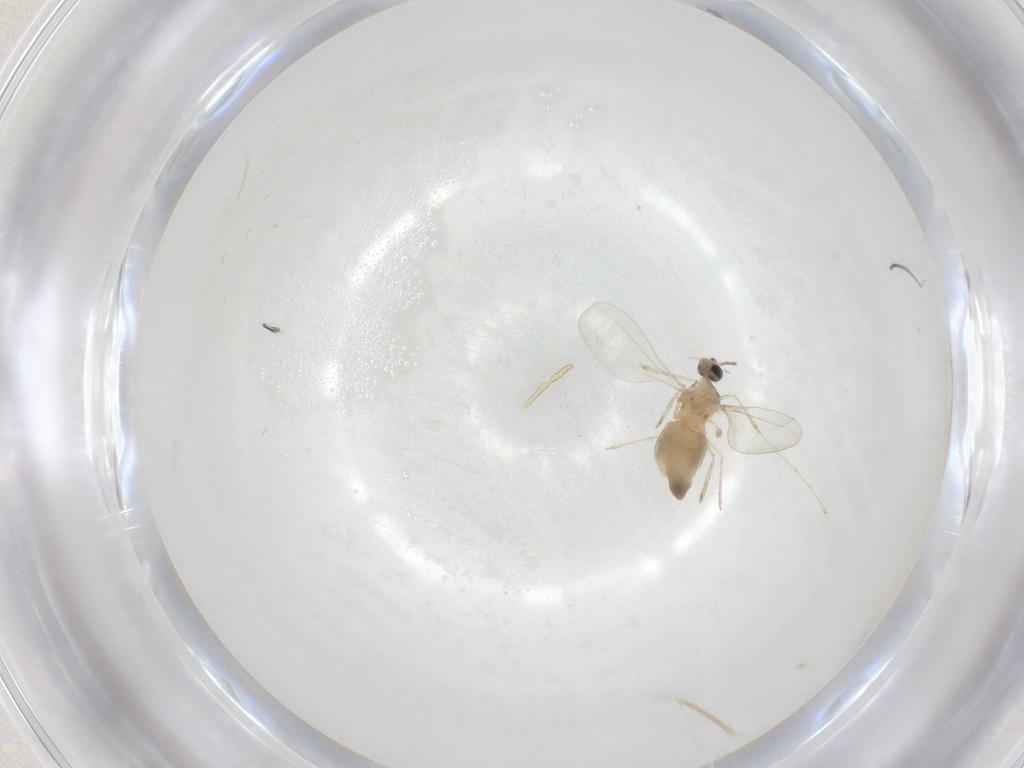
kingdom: Animalia
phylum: Arthropoda
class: Insecta
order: Diptera
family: Cecidomyiidae
